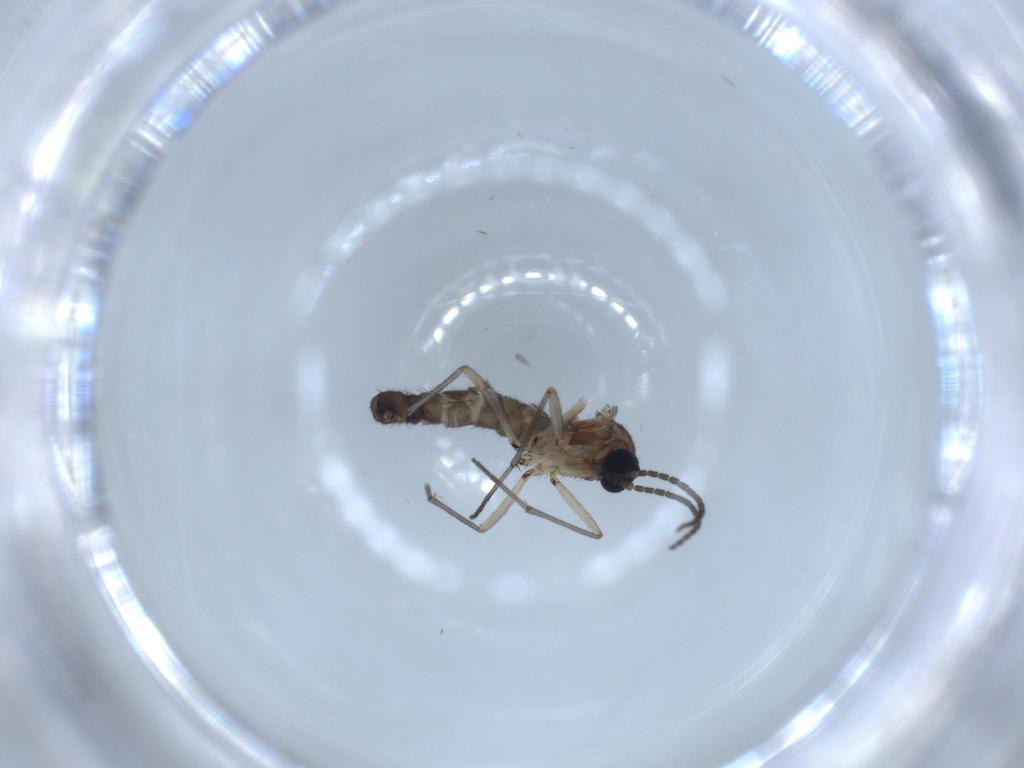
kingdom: Animalia
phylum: Arthropoda
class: Insecta
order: Diptera
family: Sciaridae
